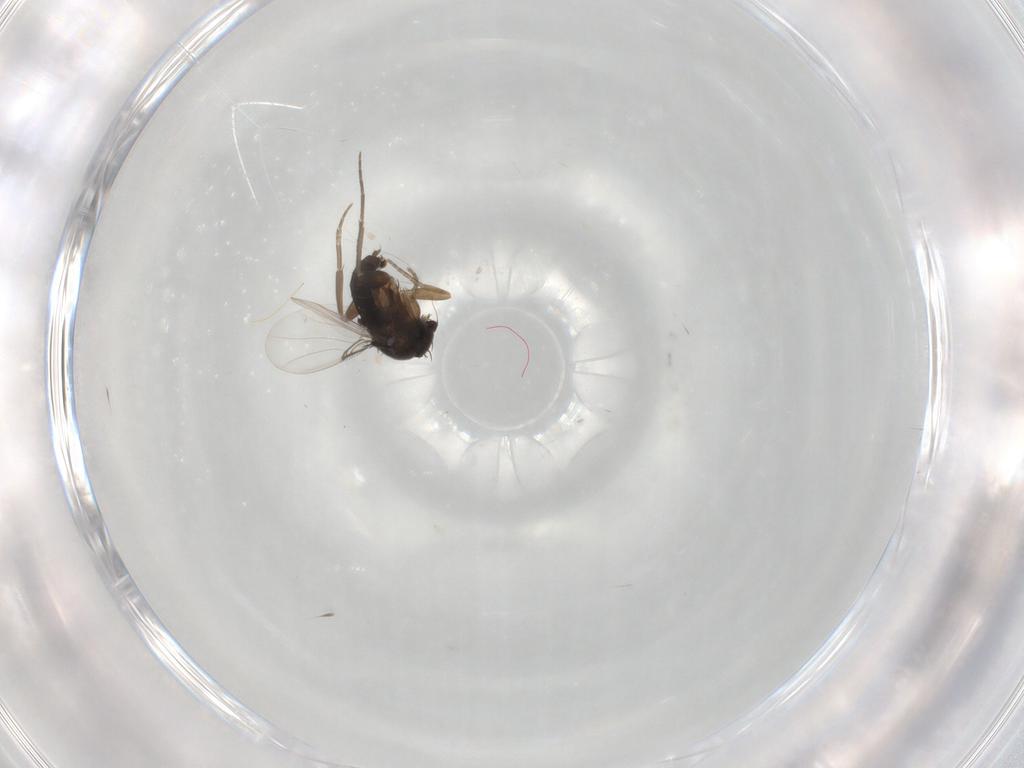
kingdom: Animalia
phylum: Arthropoda
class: Insecta
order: Diptera
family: Phoridae
